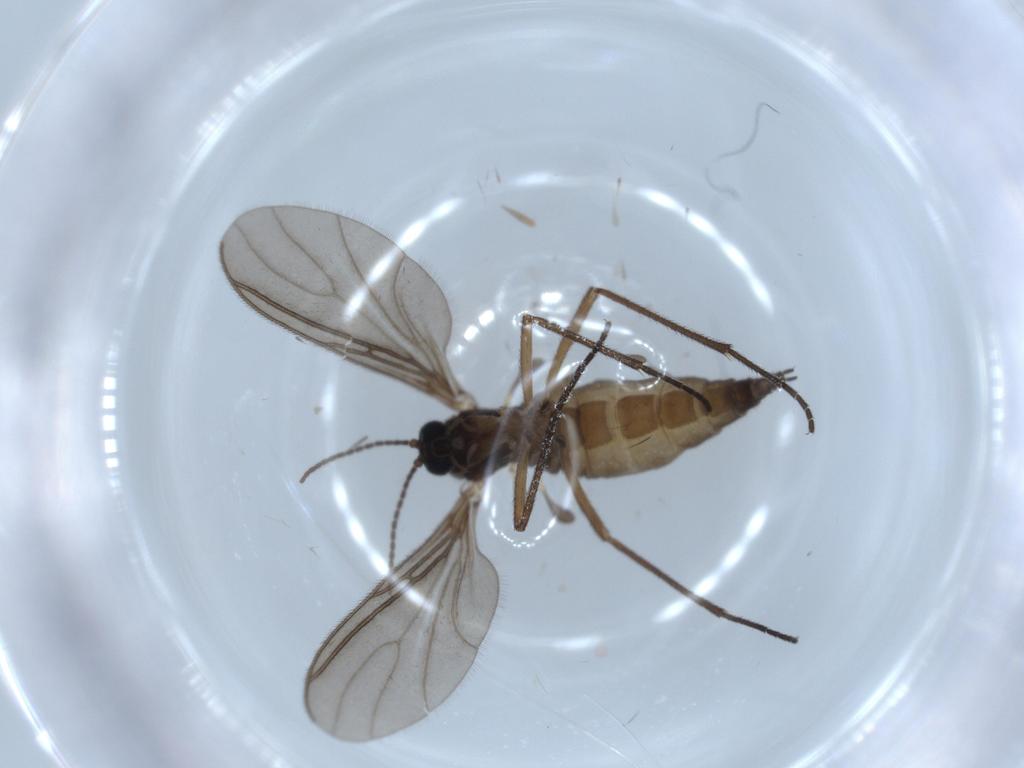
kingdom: Animalia
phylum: Arthropoda
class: Insecta
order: Diptera
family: Sciaridae
